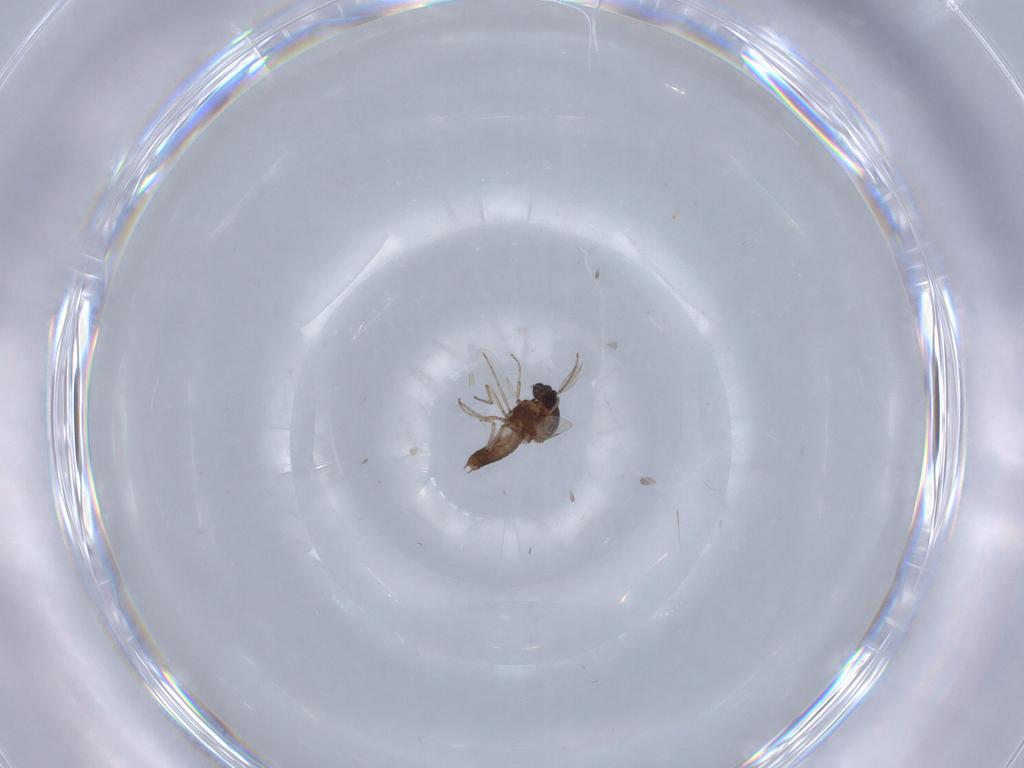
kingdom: Animalia
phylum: Arthropoda
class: Insecta
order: Diptera
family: Ceratopogonidae
